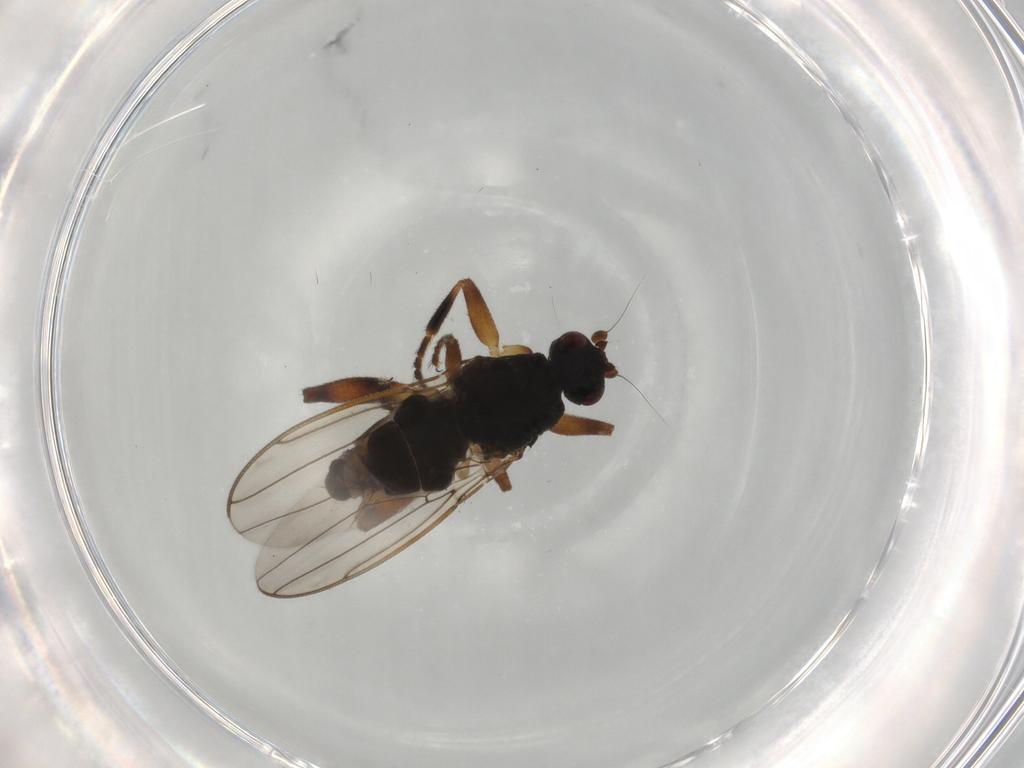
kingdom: Animalia
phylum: Arthropoda
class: Insecta
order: Diptera
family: Sphaeroceridae
